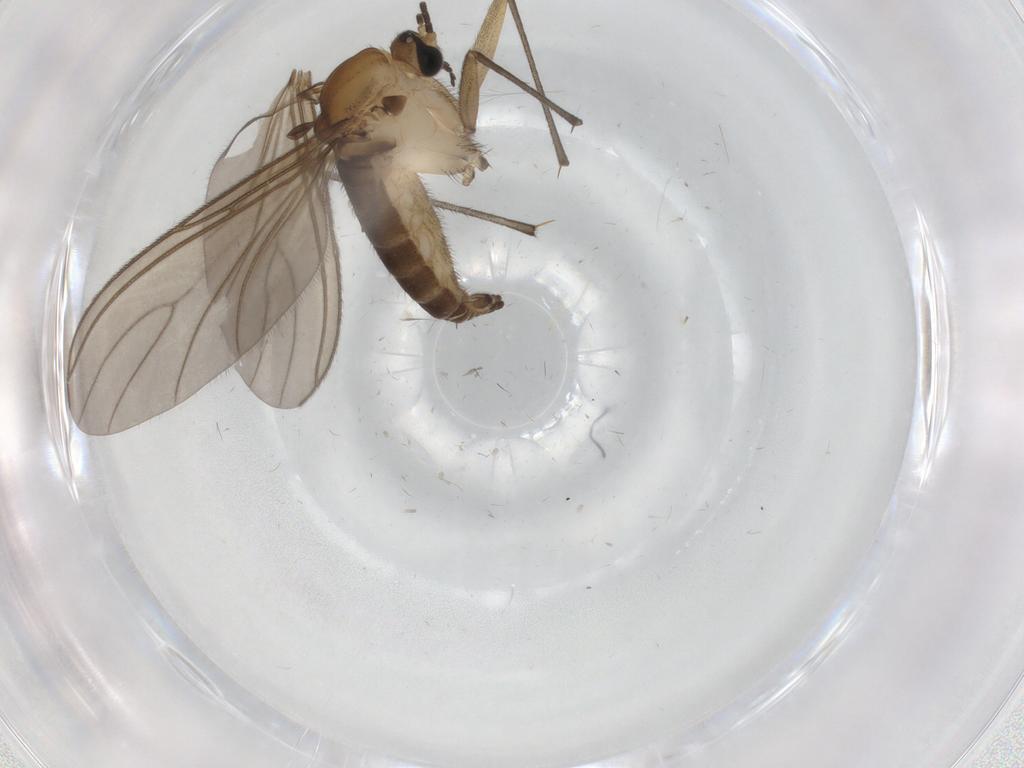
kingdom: Animalia
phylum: Arthropoda
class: Insecta
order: Diptera
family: Sciaridae
